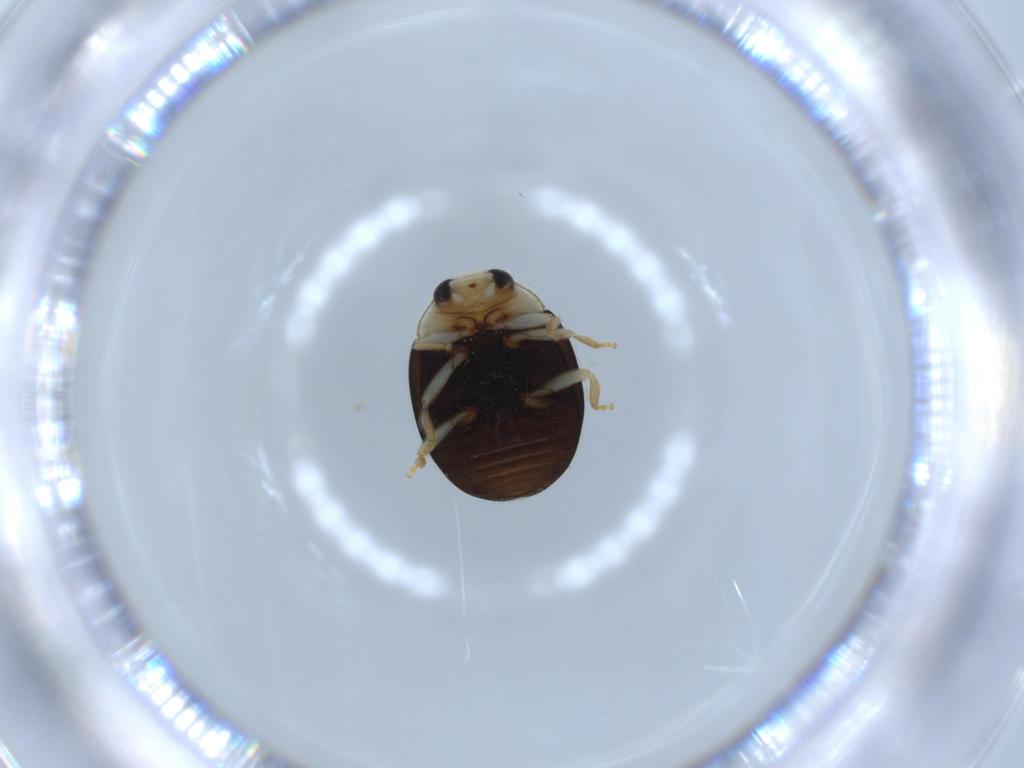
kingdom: Animalia
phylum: Arthropoda
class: Insecta
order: Coleoptera
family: Coccinellidae
